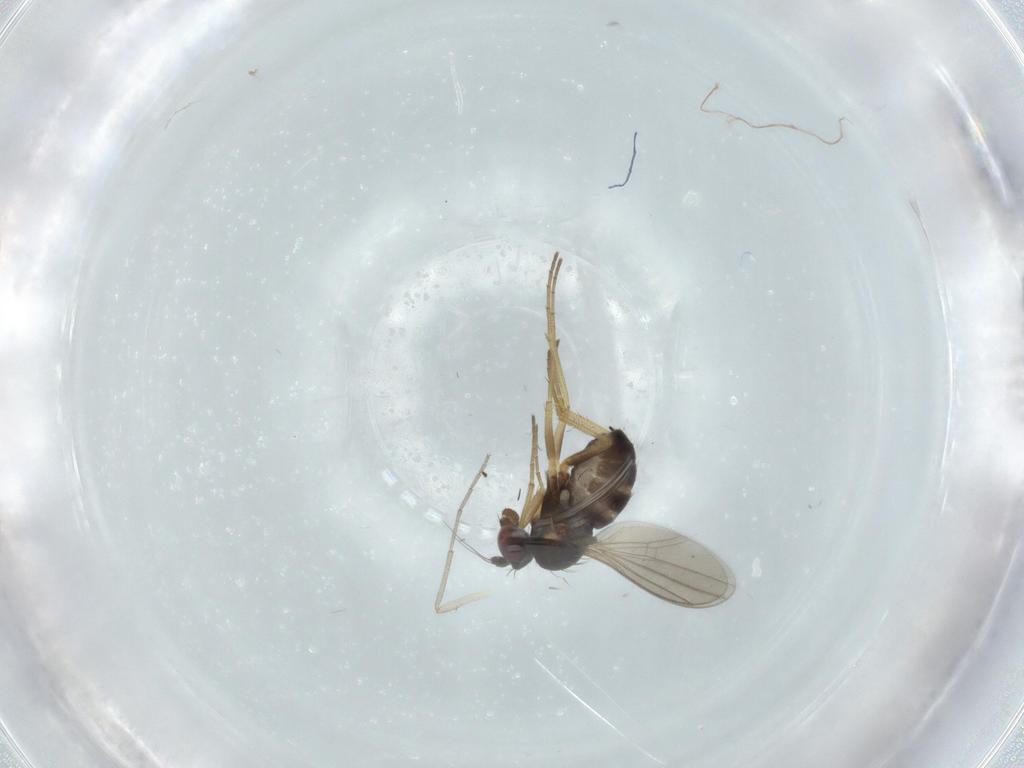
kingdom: Animalia
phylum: Arthropoda
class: Insecta
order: Diptera
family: Dolichopodidae
